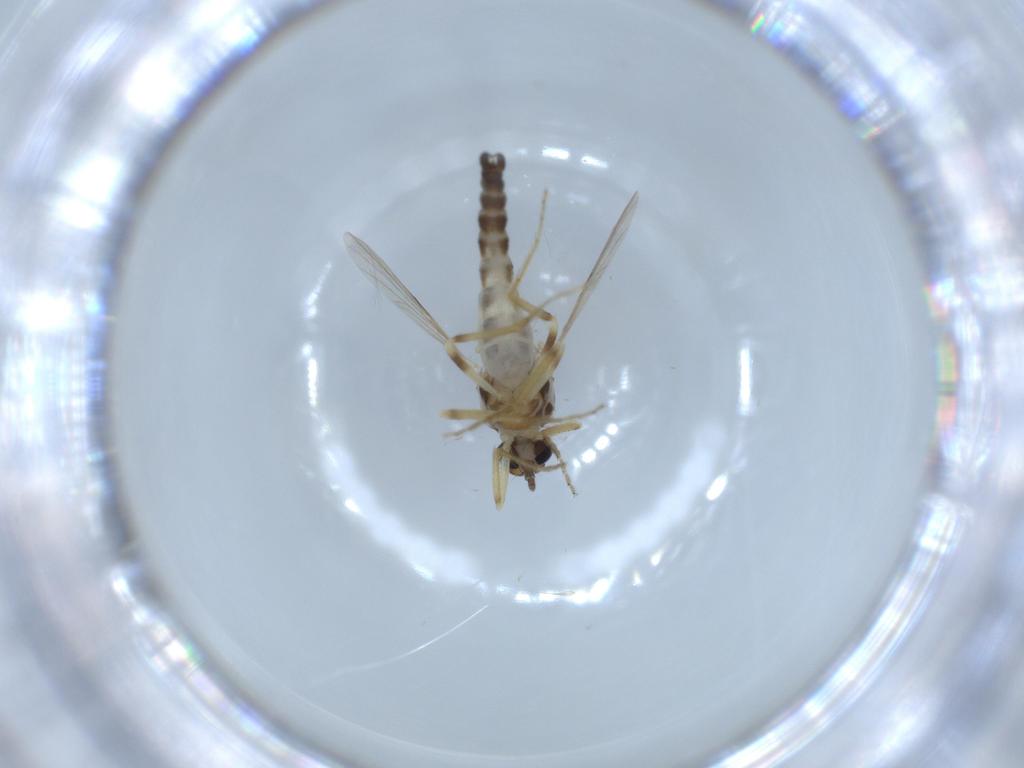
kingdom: Animalia
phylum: Arthropoda
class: Insecta
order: Diptera
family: Ceratopogonidae
